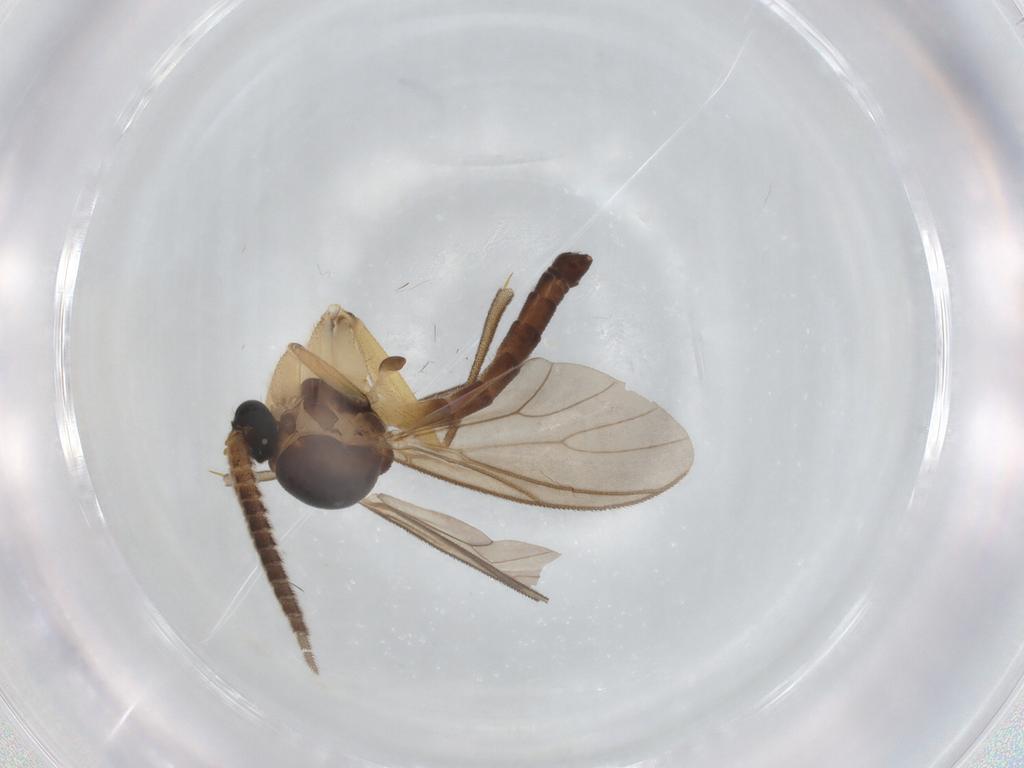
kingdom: Animalia
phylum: Arthropoda
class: Insecta
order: Diptera
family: Mycetophilidae
